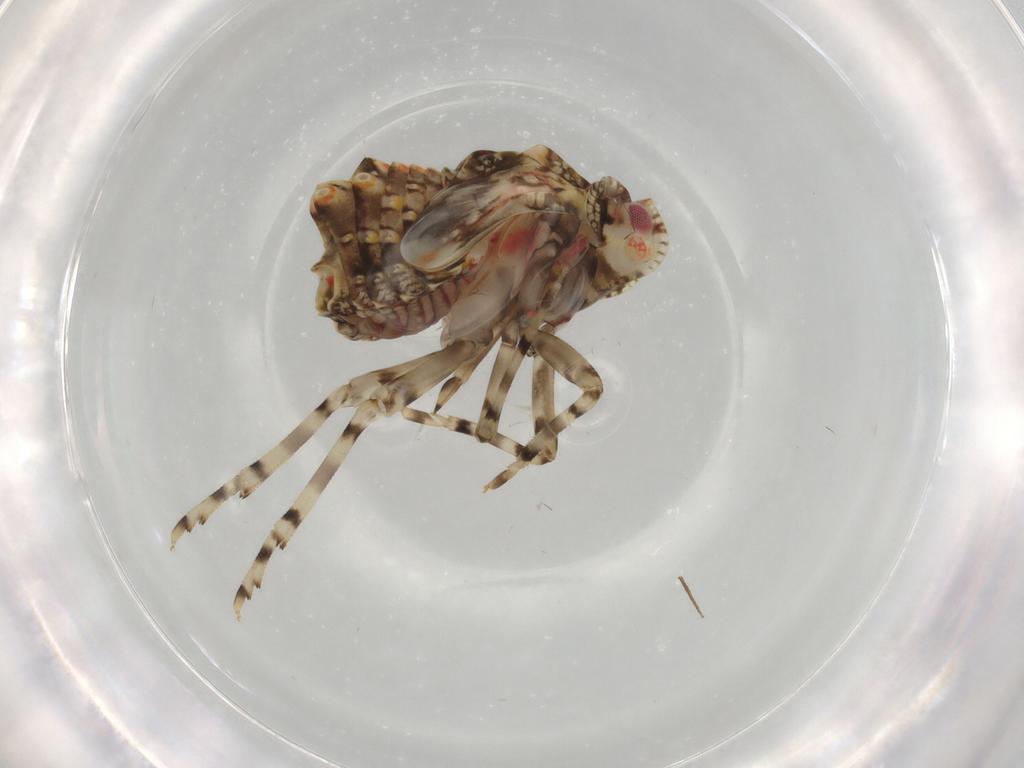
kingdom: Animalia
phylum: Arthropoda
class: Insecta
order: Hemiptera
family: Derbidae
